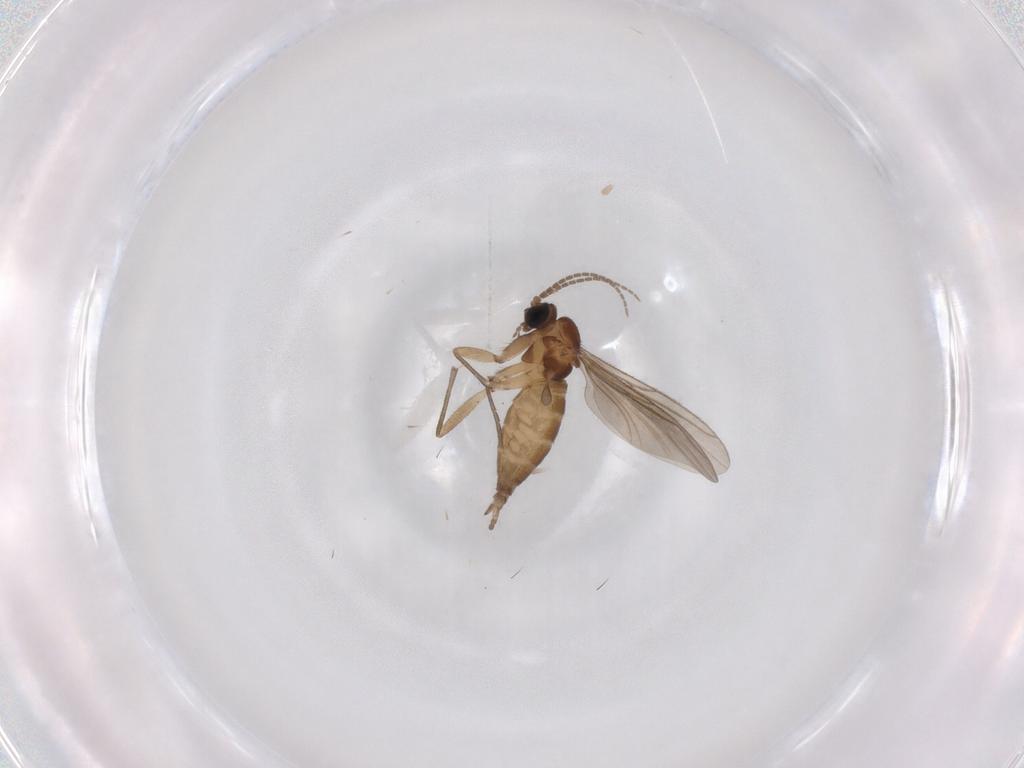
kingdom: Animalia
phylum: Arthropoda
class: Insecta
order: Diptera
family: Sciaridae
